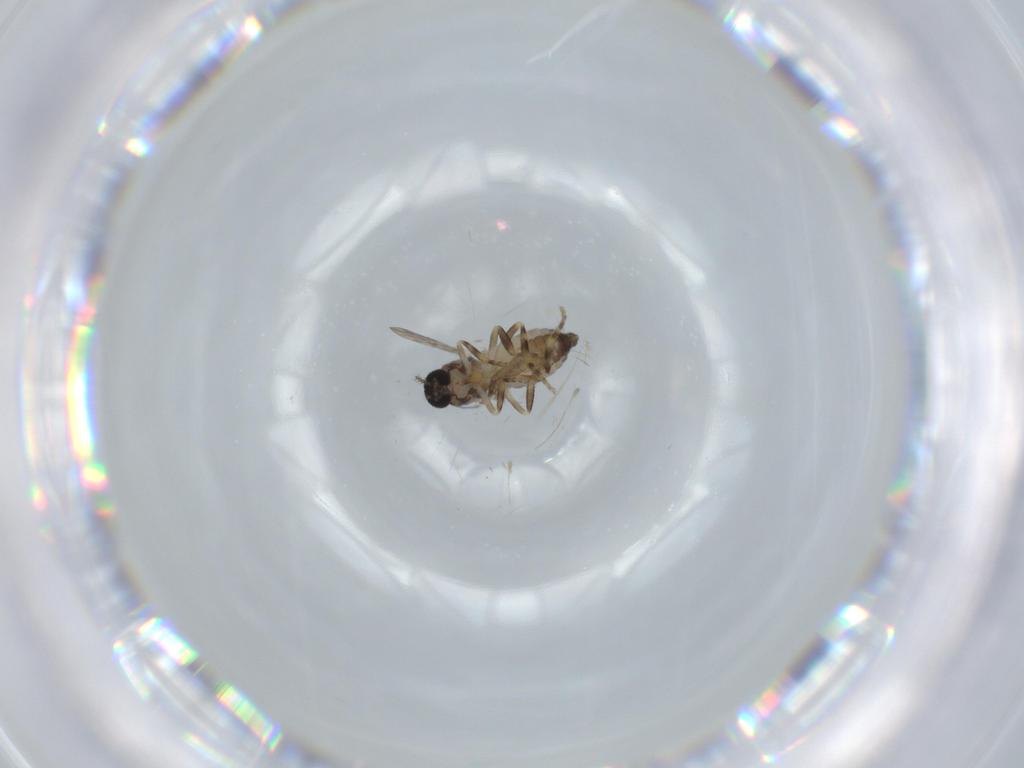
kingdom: Animalia
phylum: Arthropoda
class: Insecta
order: Diptera
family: Ceratopogonidae
